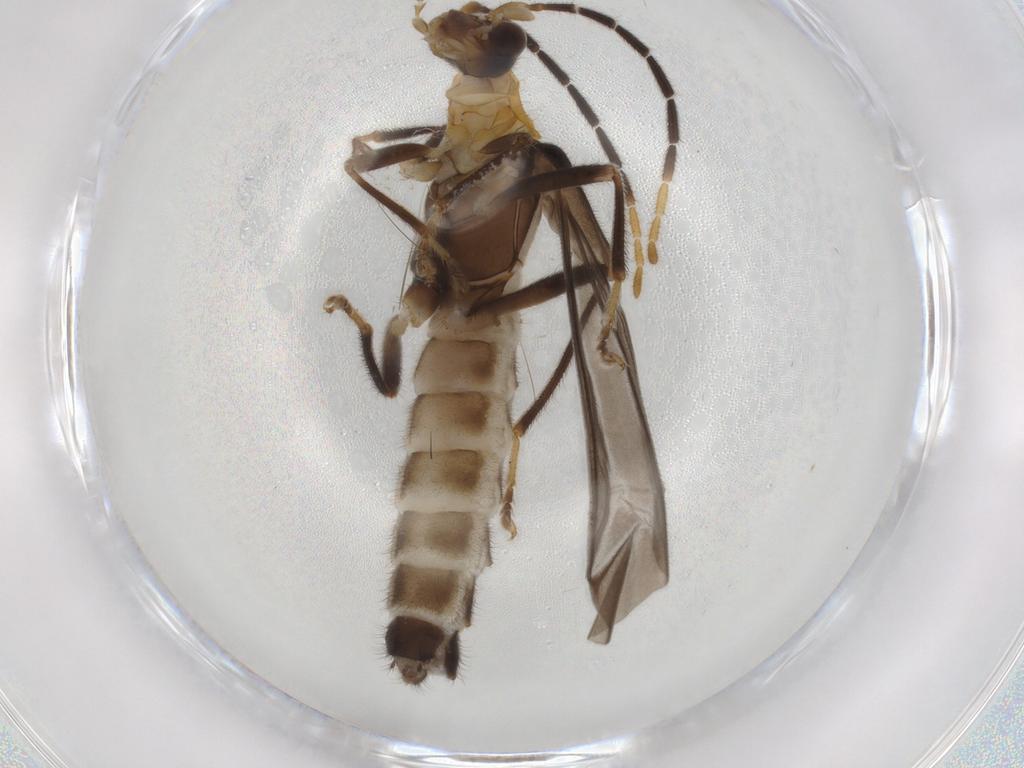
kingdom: Animalia
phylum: Arthropoda
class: Insecta
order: Coleoptera
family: Cantharidae
